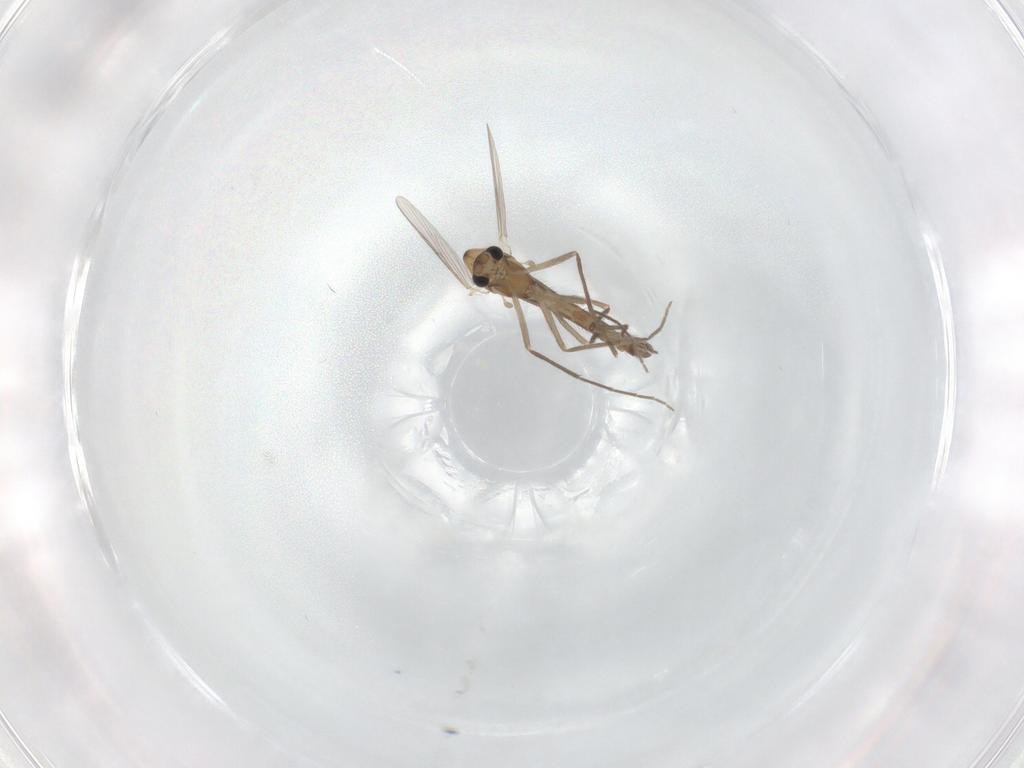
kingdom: Animalia
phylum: Arthropoda
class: Insecta
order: Diptera
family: Chironomidae
